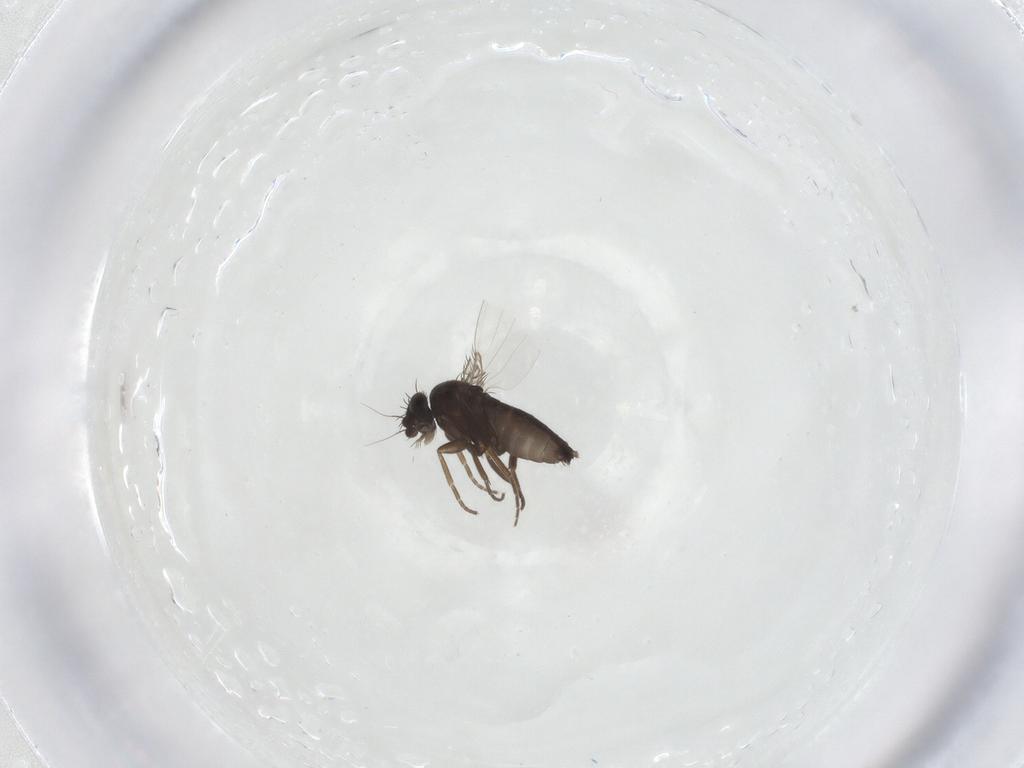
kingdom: Animalia
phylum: Arthropoda
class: Insecta
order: Diptera
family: Phoridae
